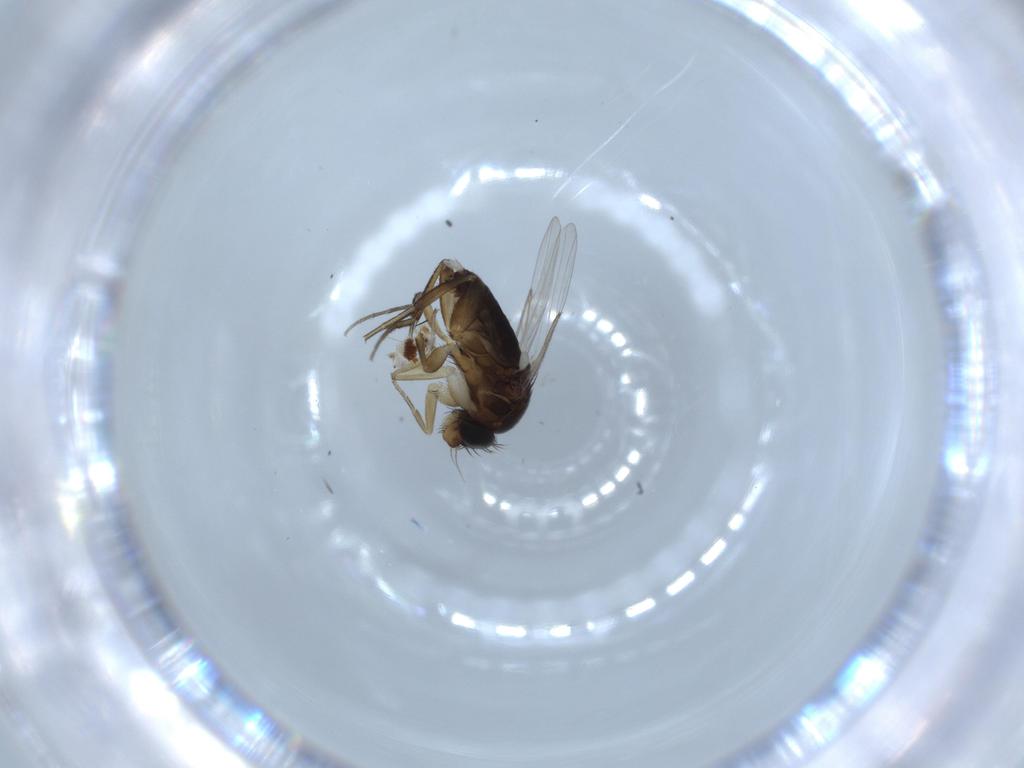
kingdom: Animalia
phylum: Arthropoda
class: Insecta
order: Diptera
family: Phoridae
